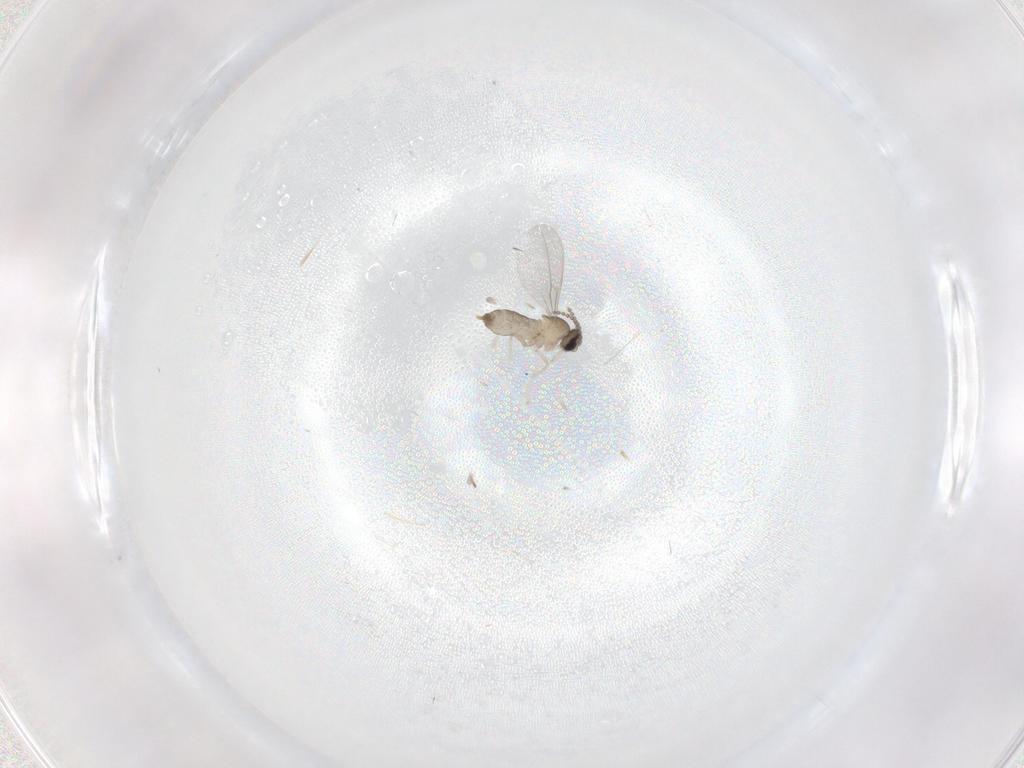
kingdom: Animalia
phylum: Arthropoda
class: Insecta
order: Diptera
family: Cecidomyiidae
